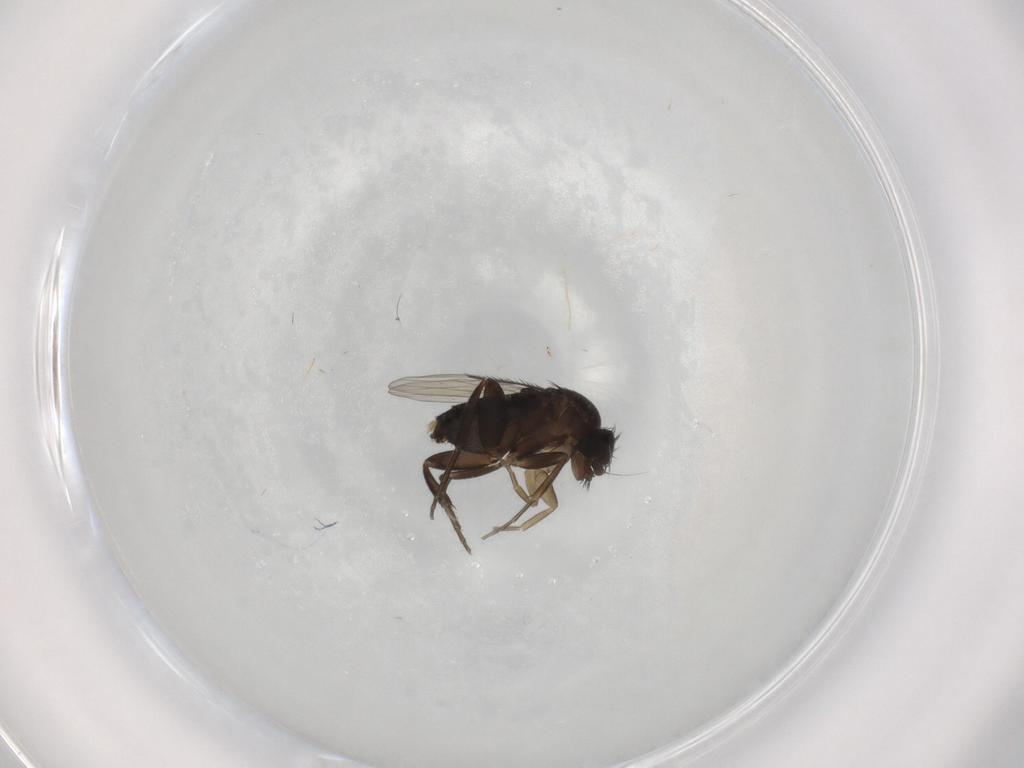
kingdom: Animalia
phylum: Arthropoda
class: Insecta
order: Diptera
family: Phoridae
